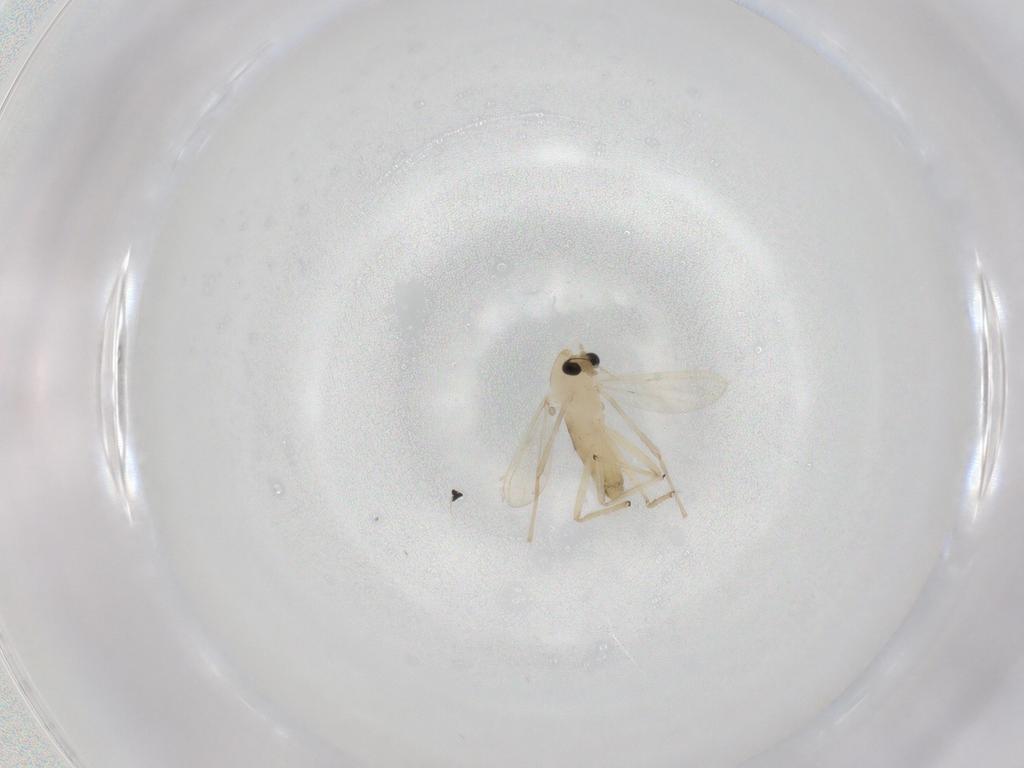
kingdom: Animalia
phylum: Arthropoda
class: Insecta
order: Diptera
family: Chironomidae
